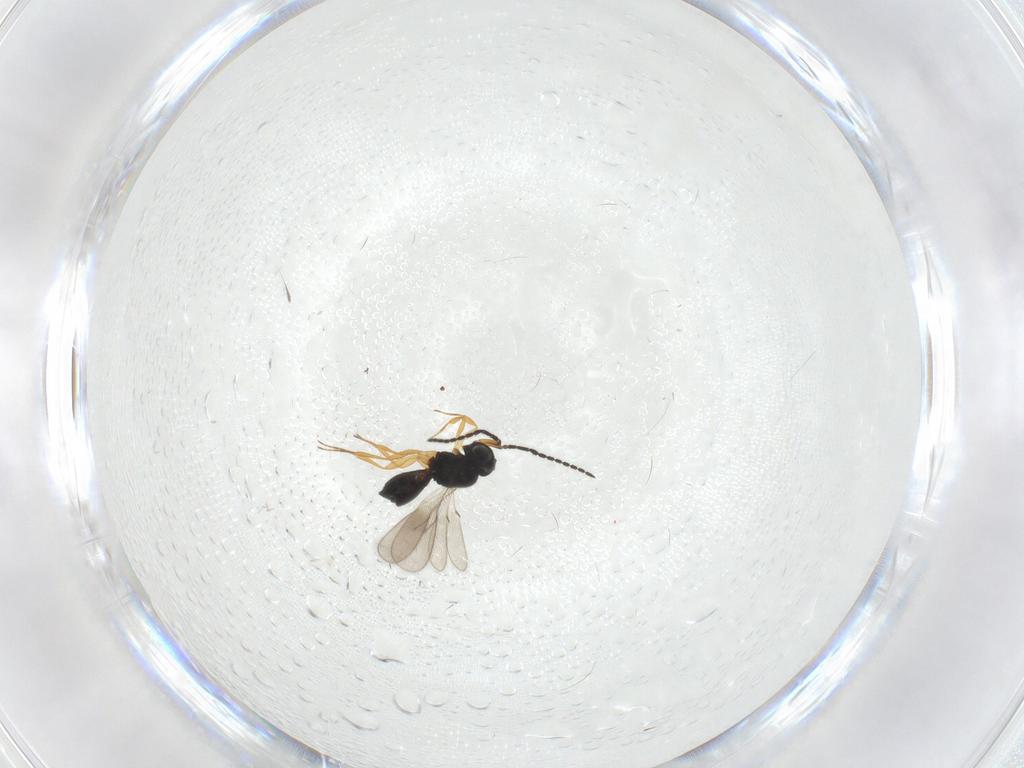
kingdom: Animalia
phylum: Arthropoda
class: Insecta
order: Hymenoptera
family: Scelionidae
